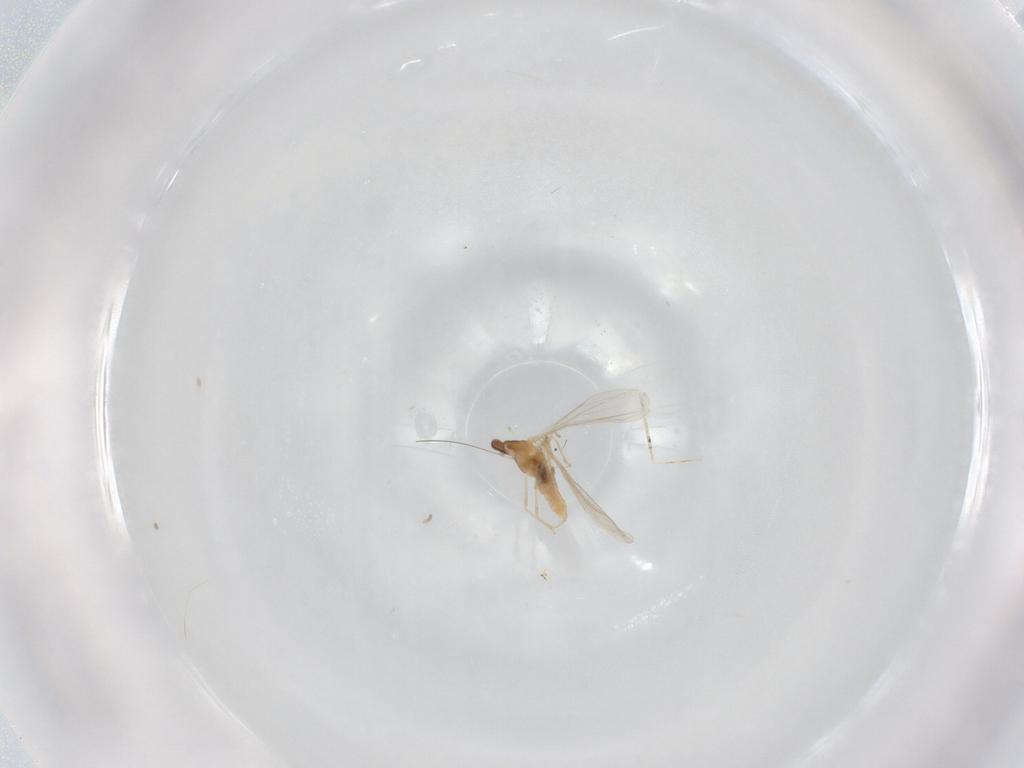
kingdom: Animalia
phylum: Arthropoda
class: Insecta
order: Diptera
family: Cecidomyiidae
